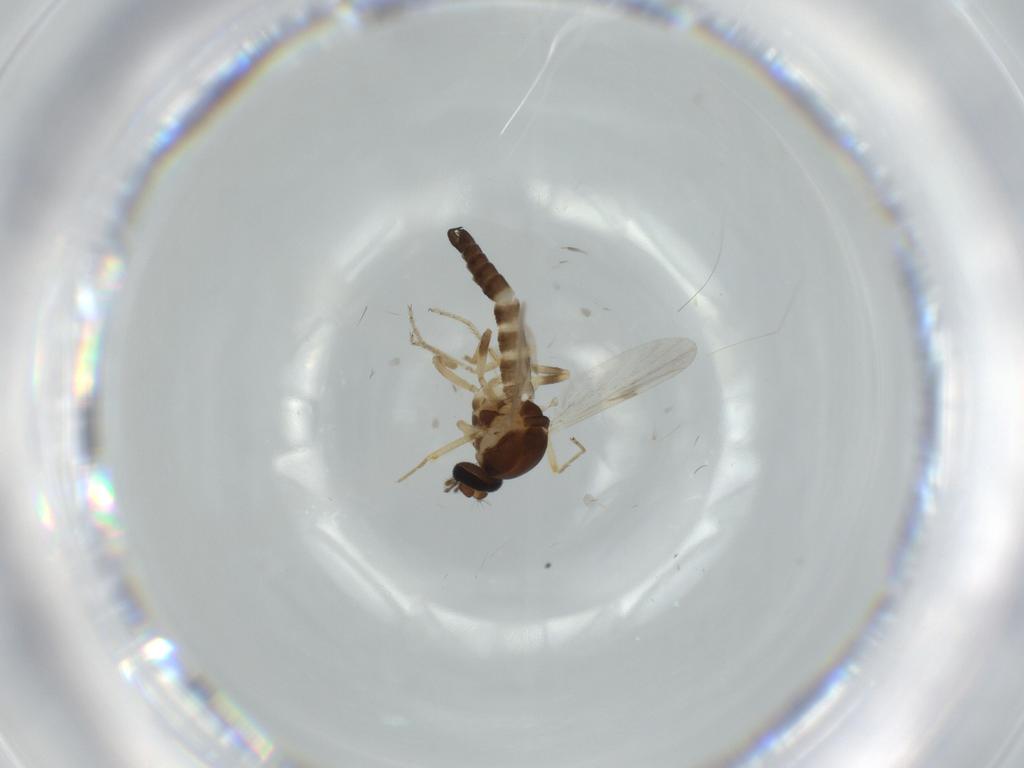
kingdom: Animalia
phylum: Arthropoda
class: Insecta
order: Diptera
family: Ceratopogonidae
